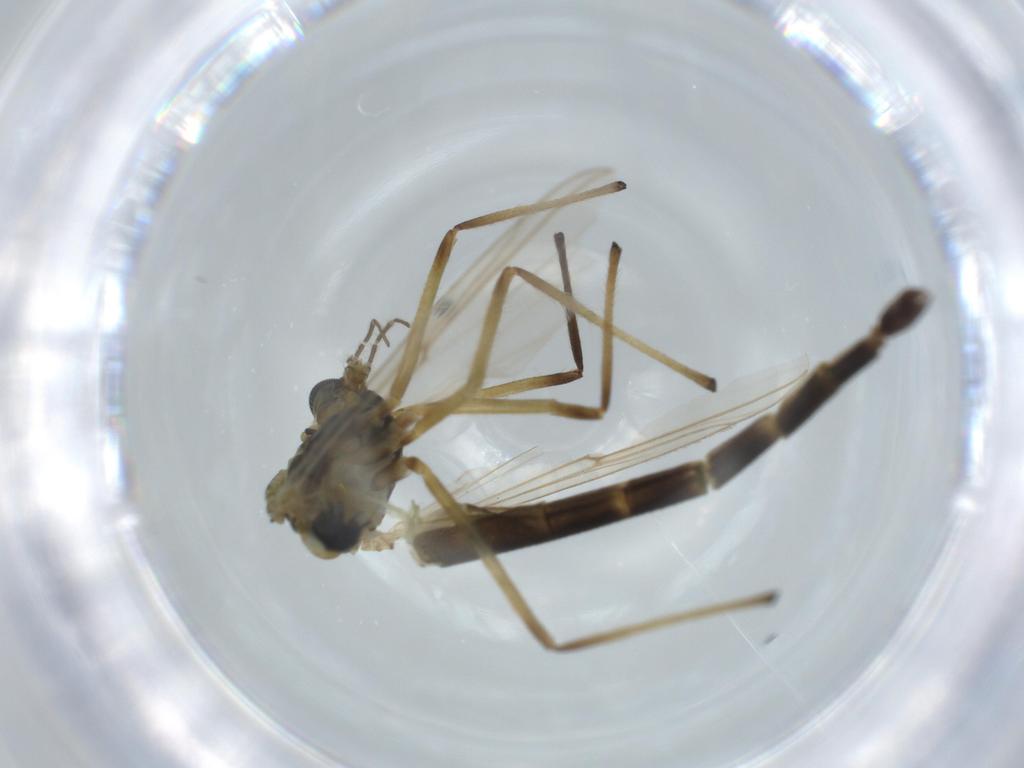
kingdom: Animalia
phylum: Arthropoda
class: Insecta
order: Diptera
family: Chironomidae
